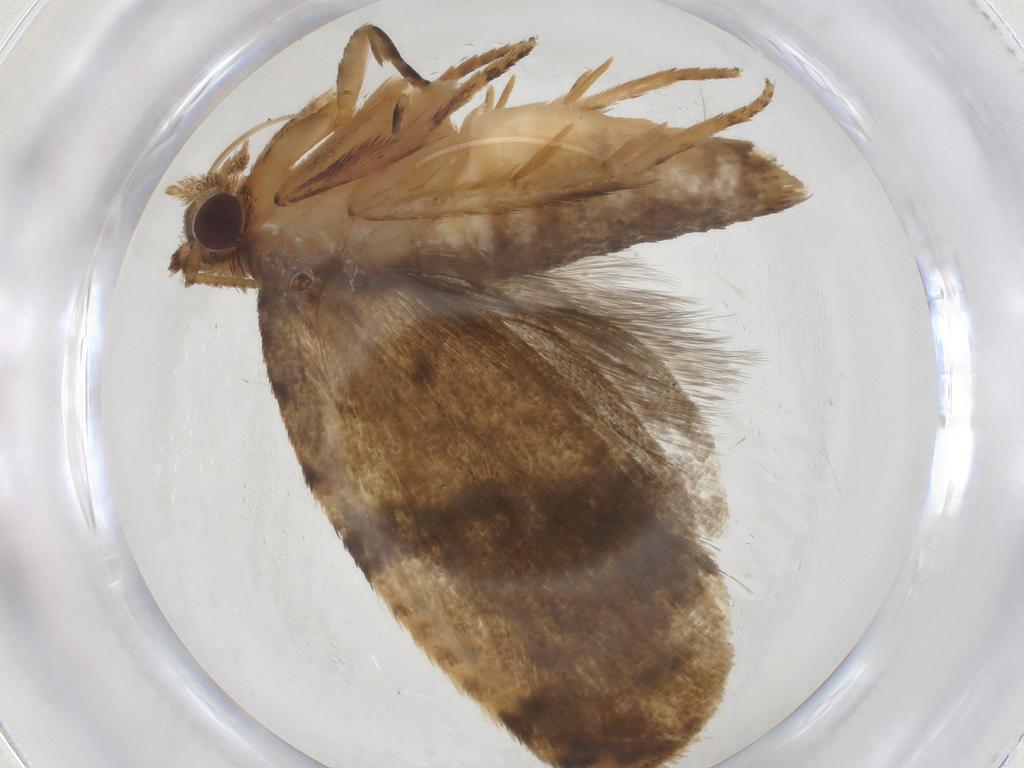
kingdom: Animalia
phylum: Arthropoda
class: Insecta
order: Lepidoptera
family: Tortricidae
